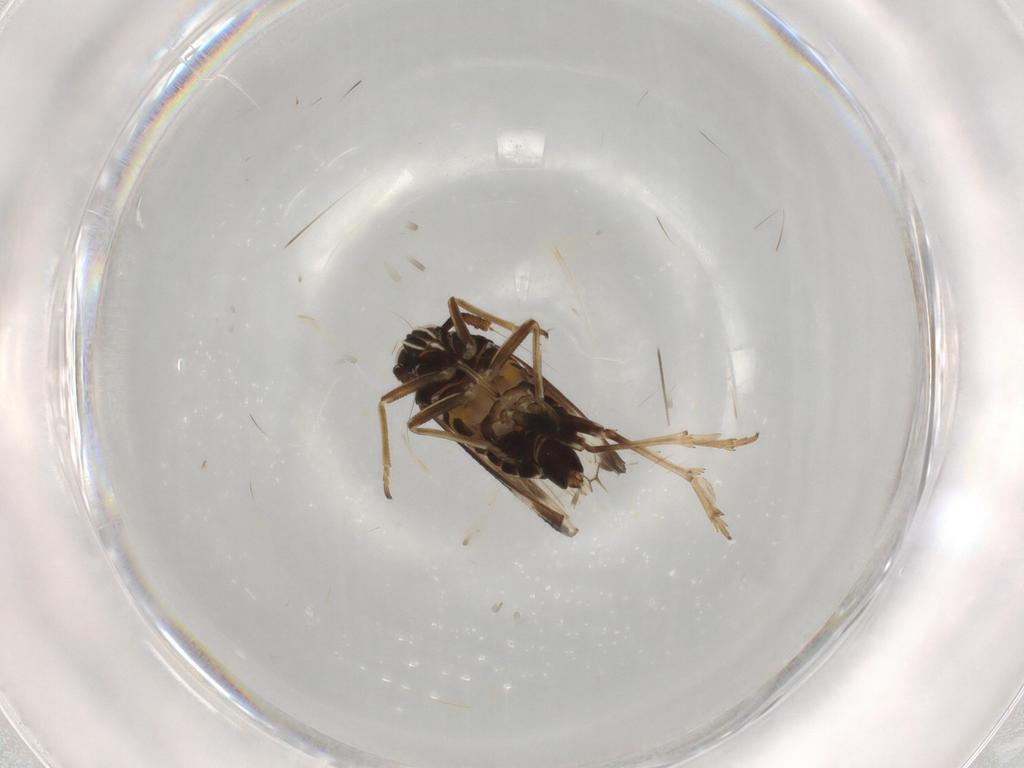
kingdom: Animalia
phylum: Arthropoda
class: Insecta
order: Hemiptera
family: Delphacidae
